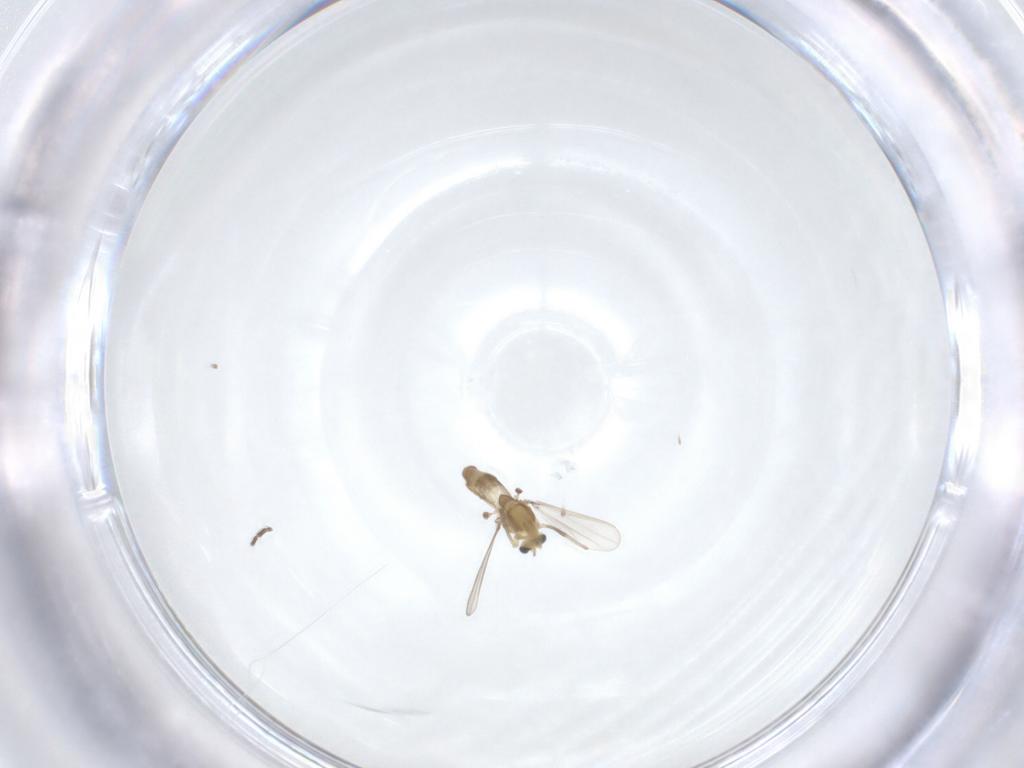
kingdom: Animalia
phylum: Arthropoda
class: Insecta
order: Diptera
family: Chironomidae
